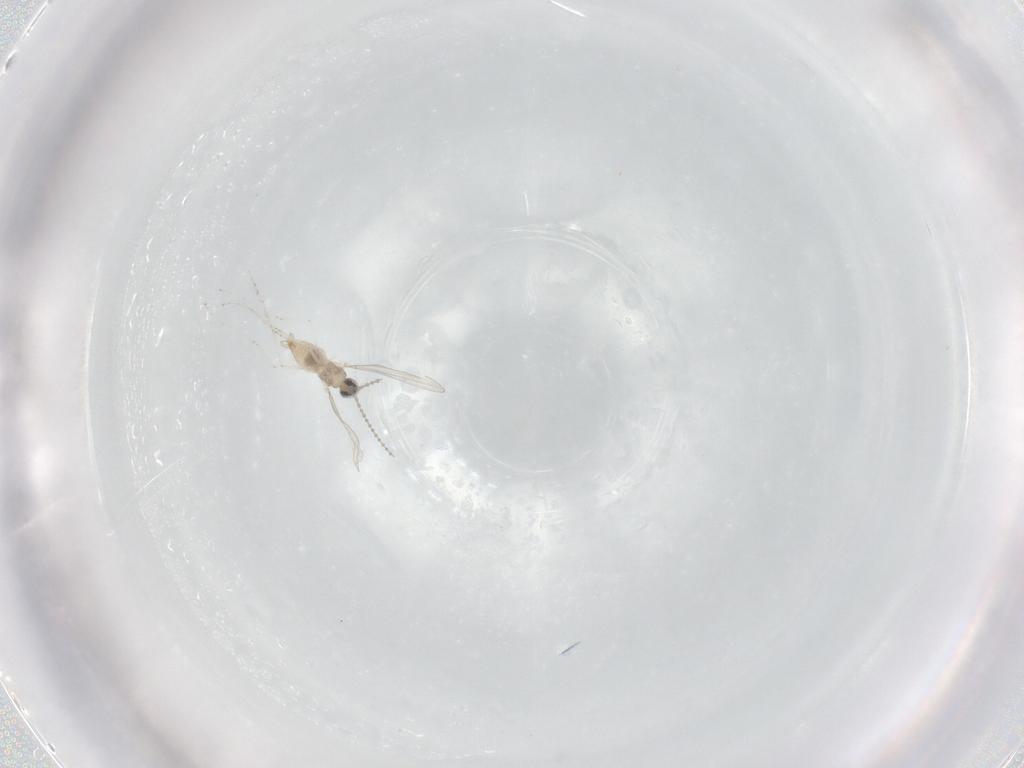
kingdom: Animalia
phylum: Arthropoda
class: Insecta
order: Diptera
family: Cecidomyiidae
